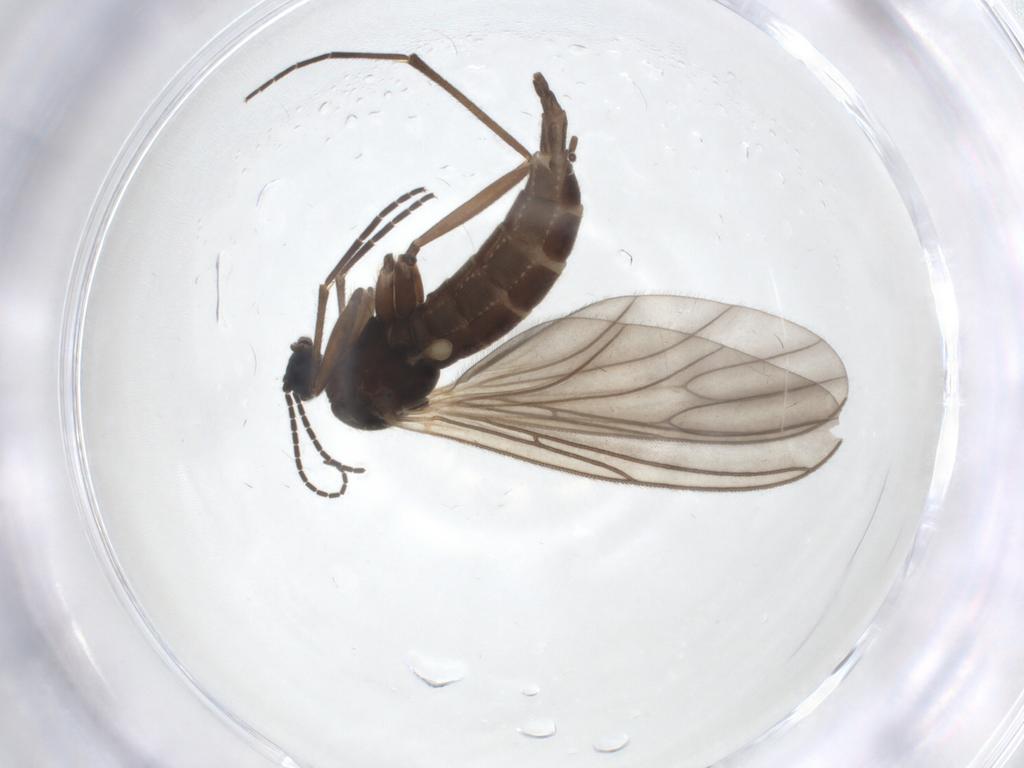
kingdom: Animalia
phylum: Arthropoda
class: Insecta
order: Diptera
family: Sciaridae
